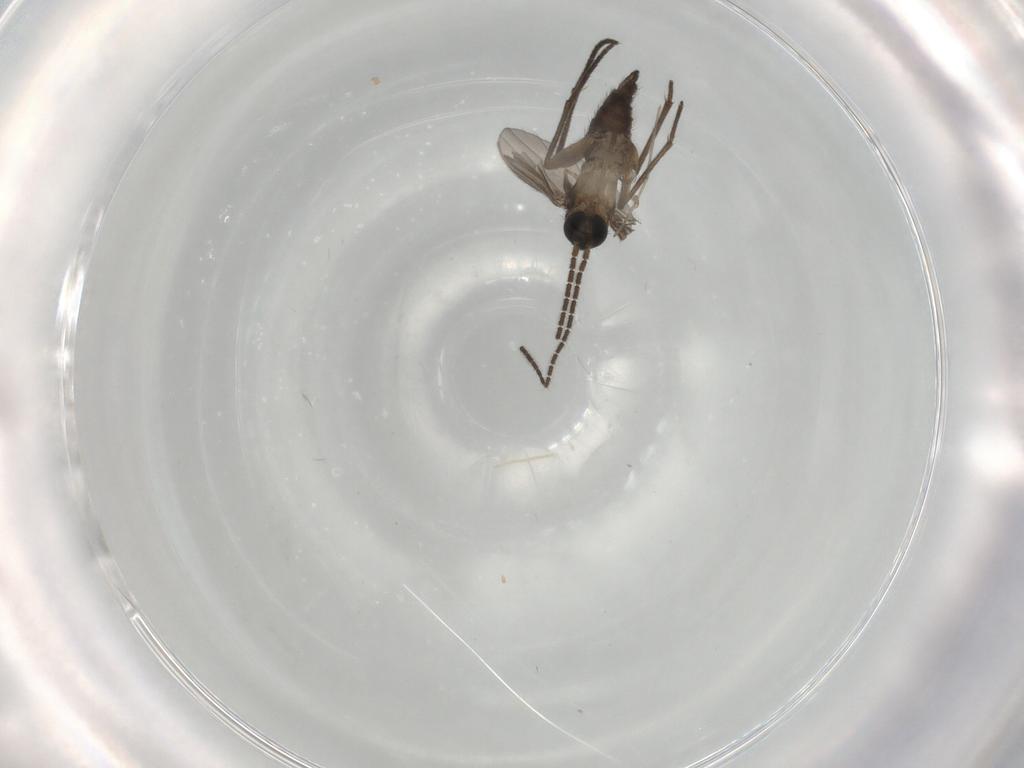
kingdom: Animalia
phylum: Arthropoda
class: Insecta
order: Diptera
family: Sciaridae
